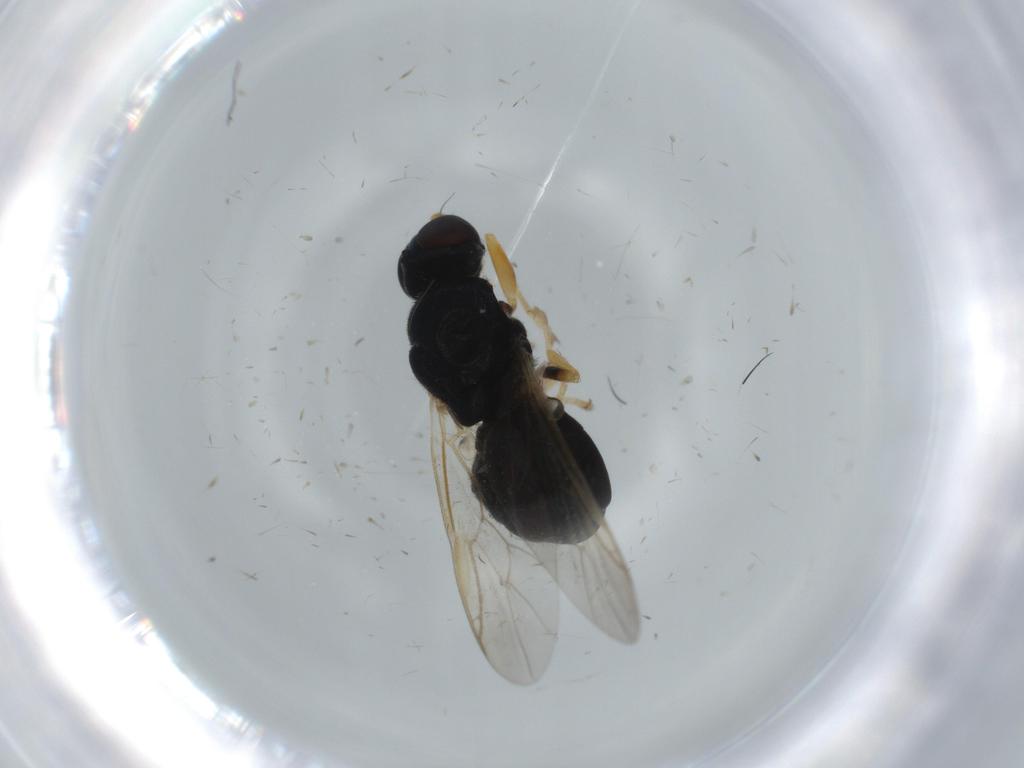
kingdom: Animalia
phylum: Arthropoda
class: Insecta
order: Diptera
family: Stratiomyidae
